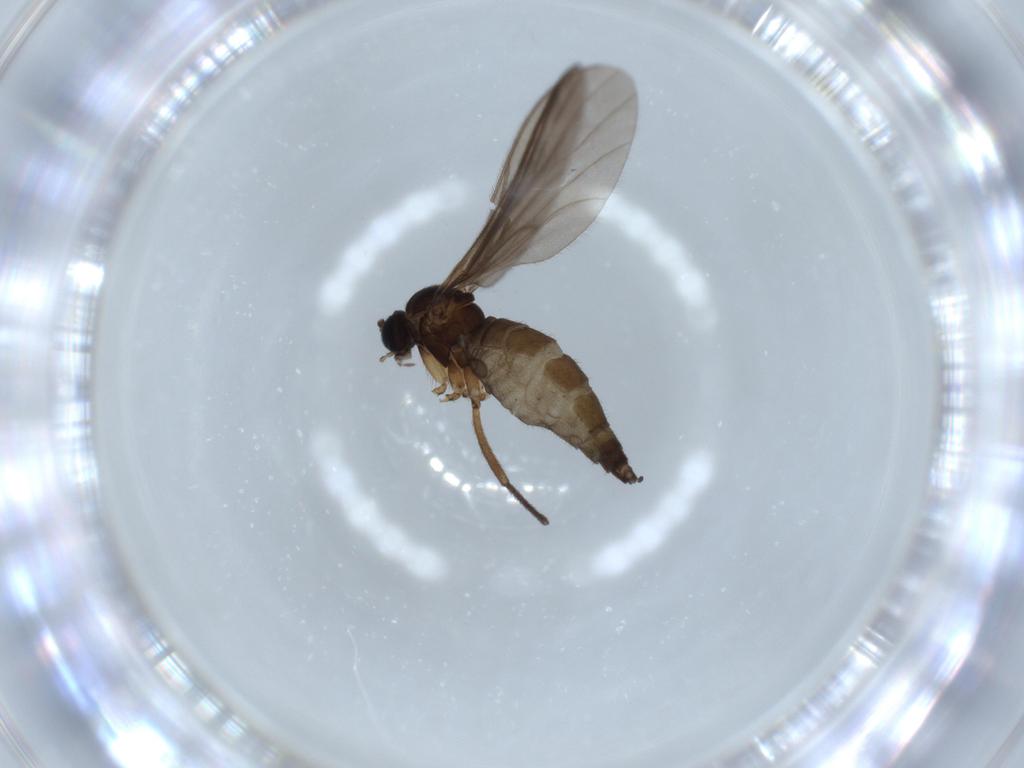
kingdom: Animalia
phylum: Arthropoda
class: Insecta
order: Diptera
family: Sciaridae
